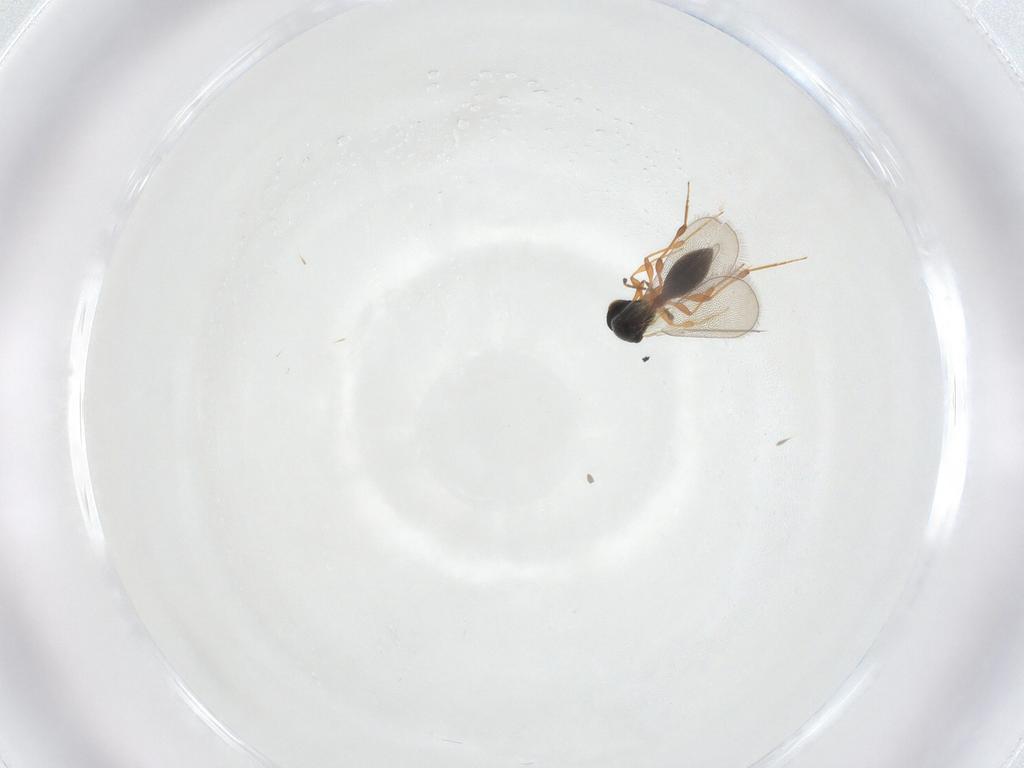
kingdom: Animalia
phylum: Arthropoda
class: Insecta
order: Hymenoptera
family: Platygastridae
